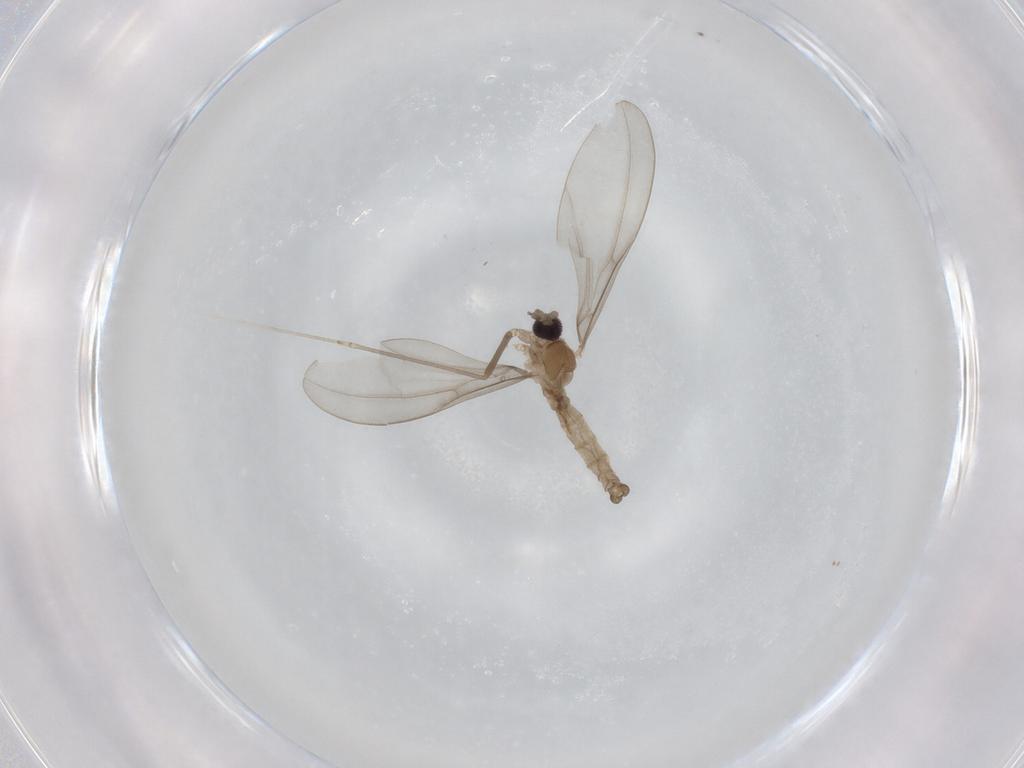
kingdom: Animalia
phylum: Arthropoda
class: Insecta
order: Diptera
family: Cecidomyiidae
